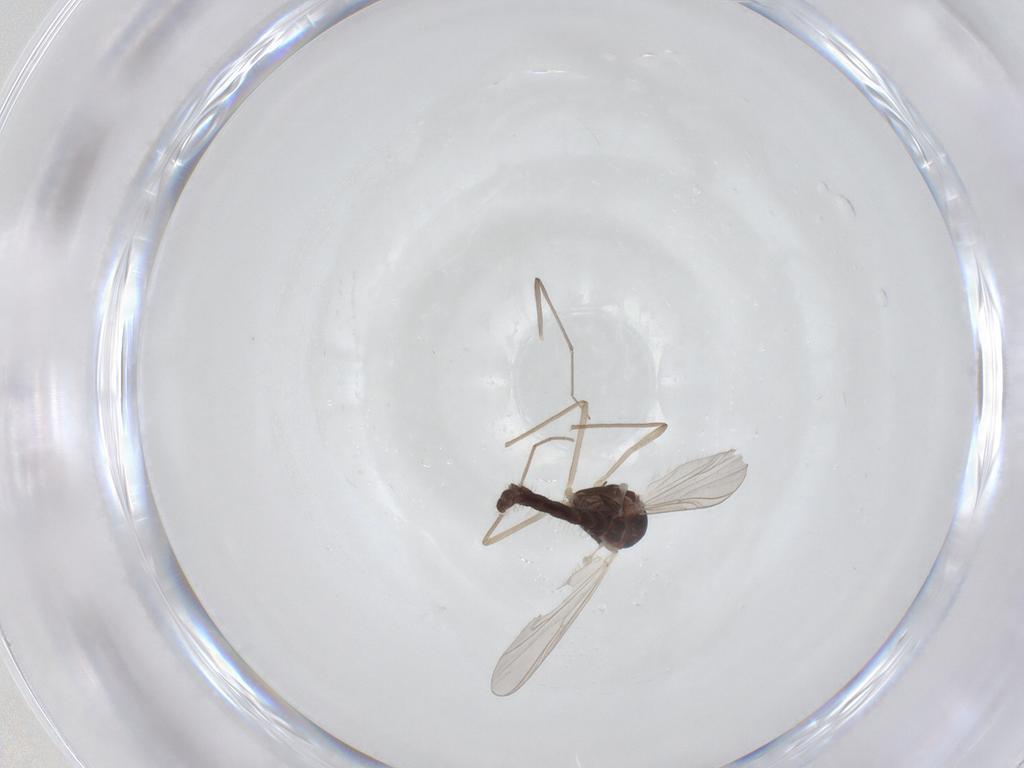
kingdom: Animalia
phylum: Arthropoda
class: Insecta
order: Diptera
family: Chironomidae
